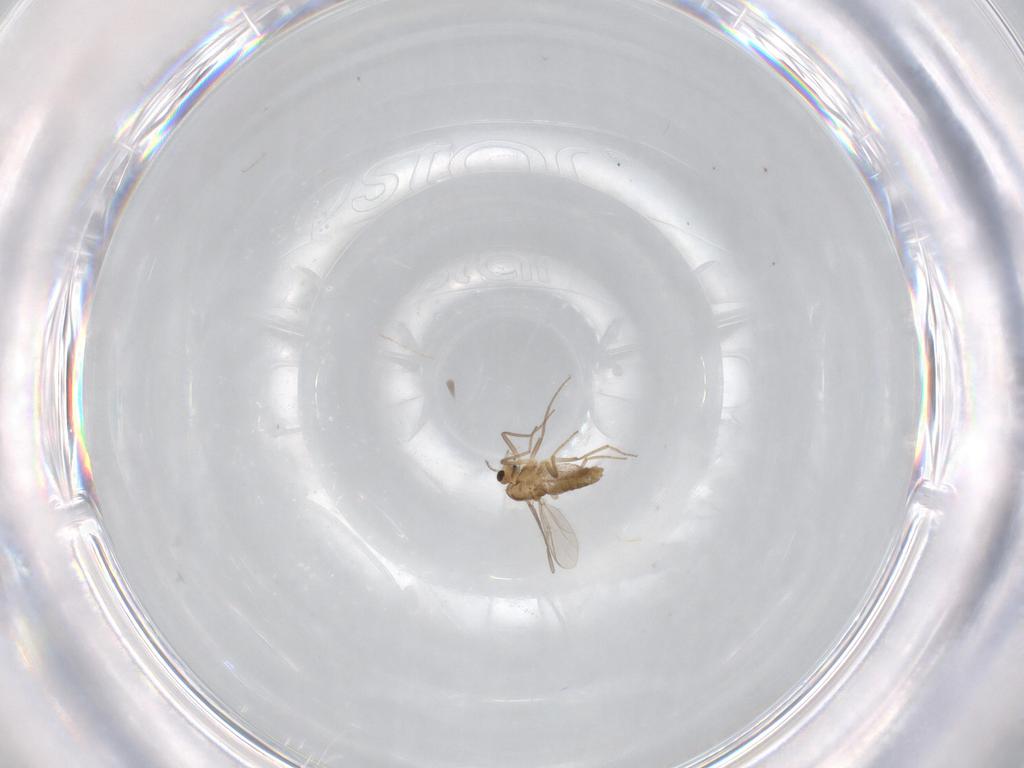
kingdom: Animalia
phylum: Arthropoda
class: Insecta
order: Diptera
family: Chironomidae
